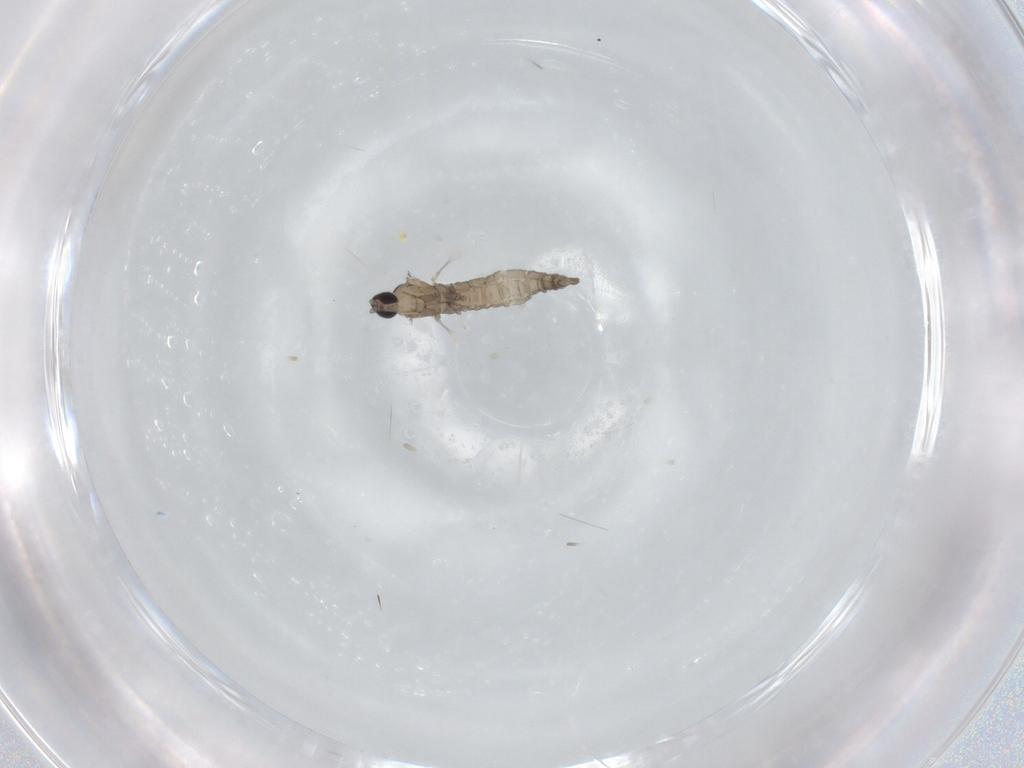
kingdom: Animalia
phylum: Arthropoda
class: Insecta
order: Diptera
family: Cecidomyiidae
